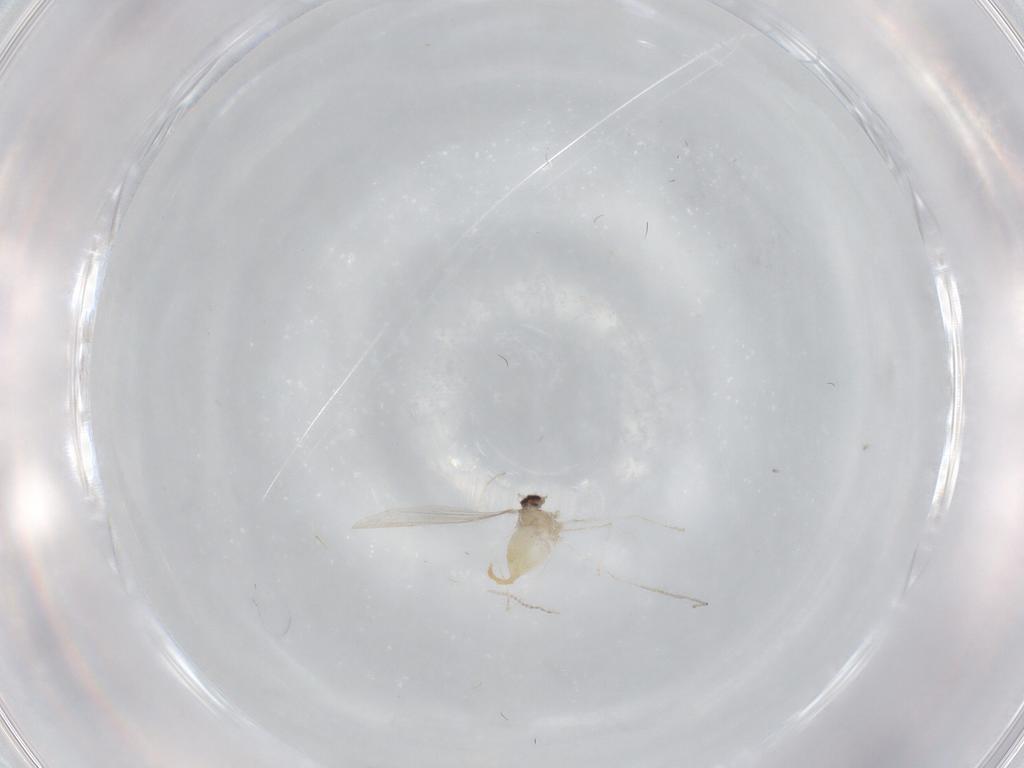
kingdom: Animalia
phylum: Arthropoda
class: Insecta
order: Diptera
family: Cecidomyiidae
